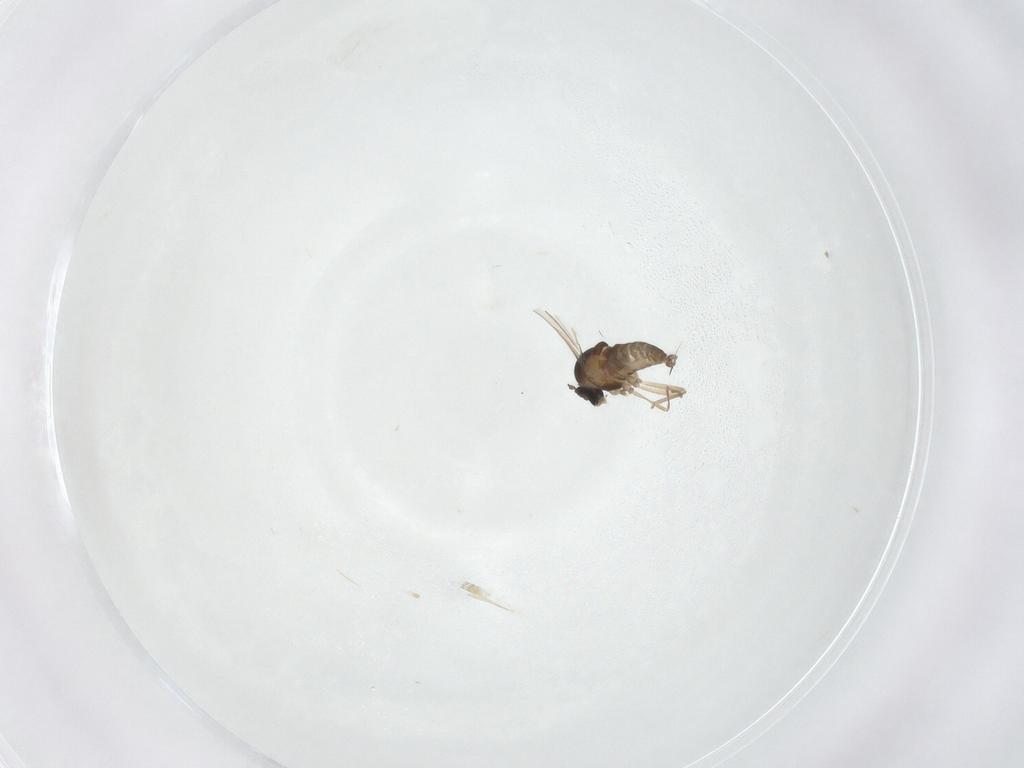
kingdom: Animalia
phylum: Arthropoda
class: Insecta
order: Diptera
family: Cecidomyiidae
